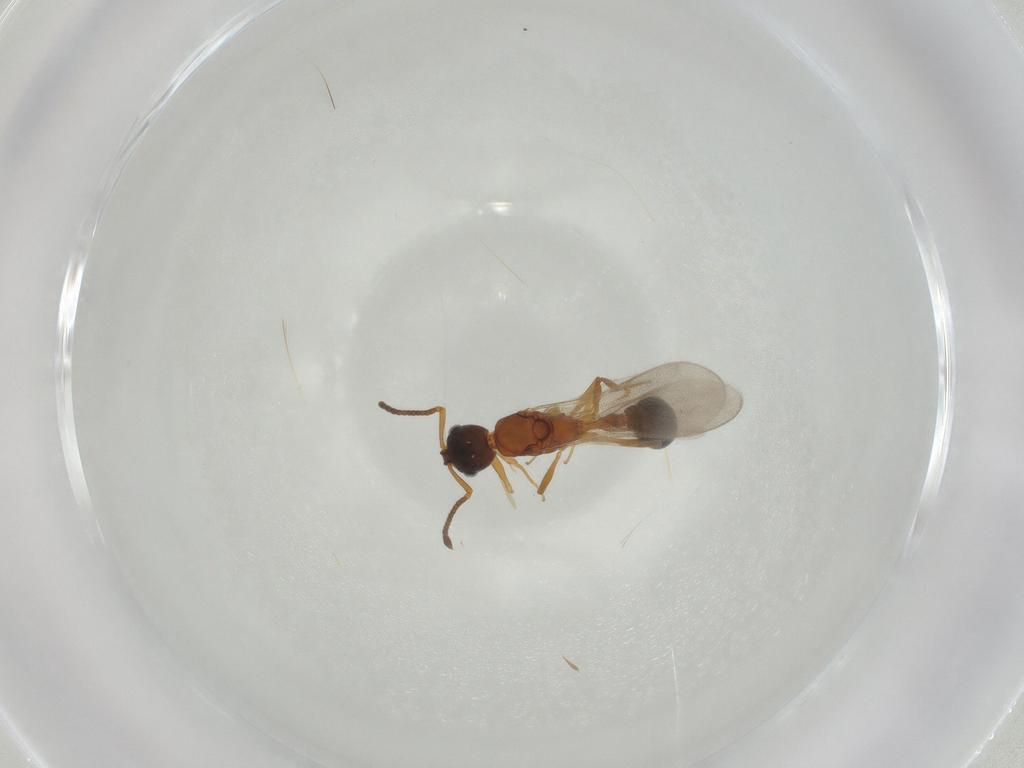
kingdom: Animalia
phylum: Arthropoda
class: Insecta
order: Hymenoptera
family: Formicidae
